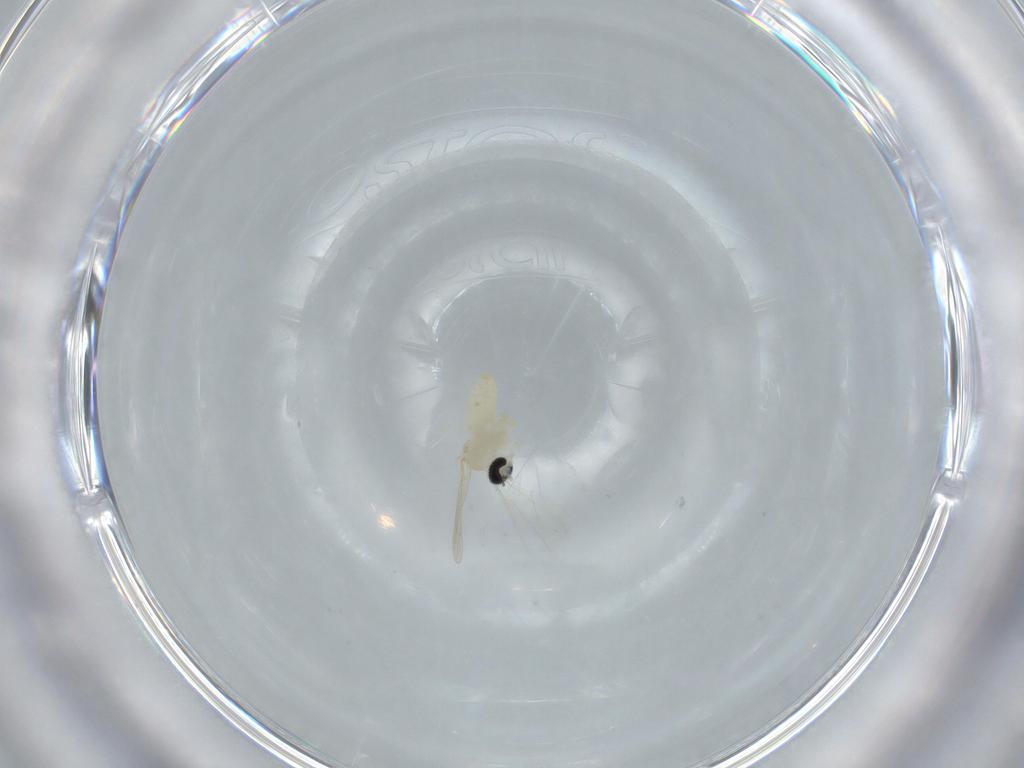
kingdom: Animalia
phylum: Arthropoda
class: Insecta
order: Diptera
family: Cecidomyiidae
